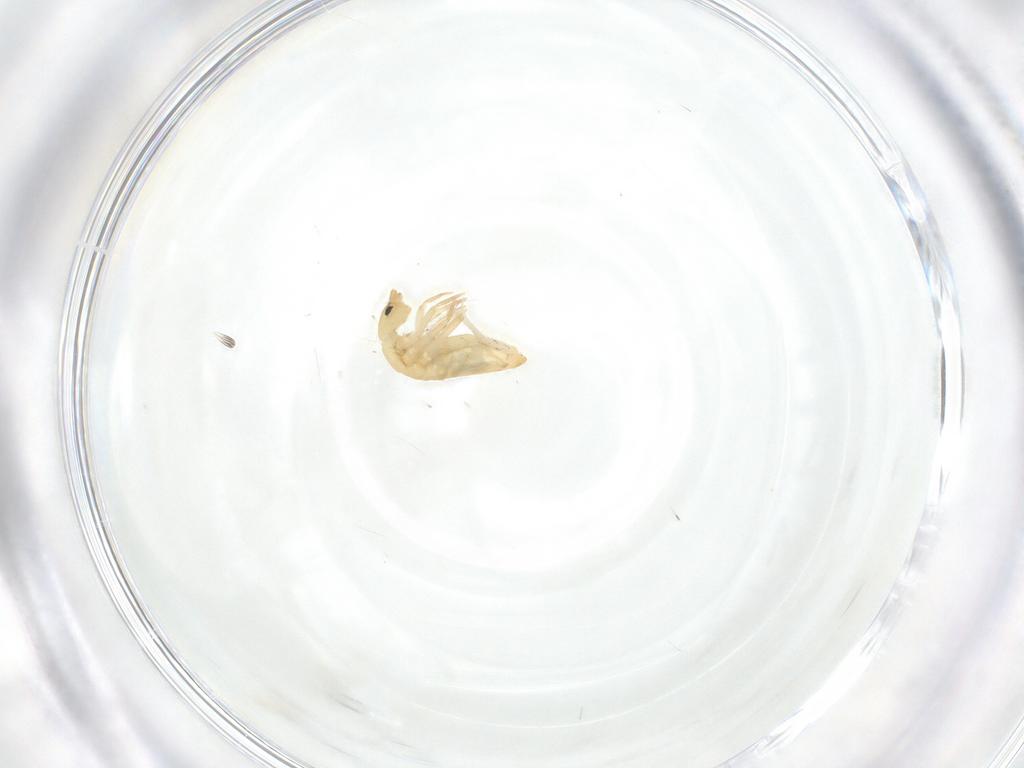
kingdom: Animalia
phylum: Arthropoda
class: Collembola
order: Entomobryomorpha
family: Entomobryidae
